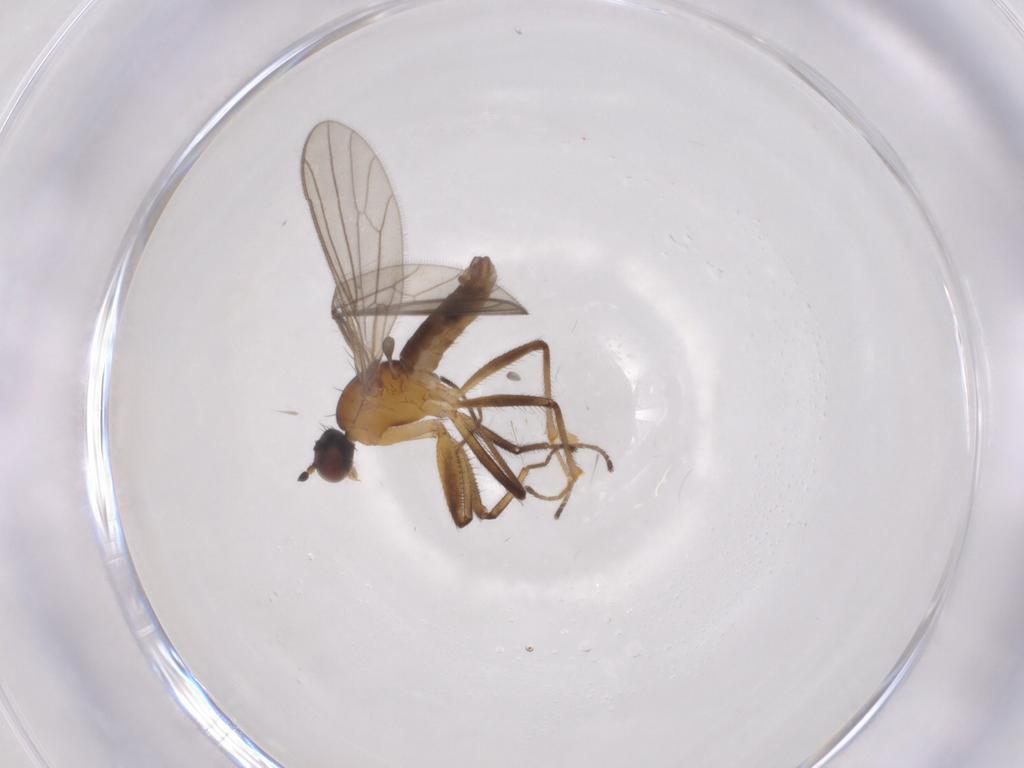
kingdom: Animalia
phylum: Arthropoda
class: Insecta
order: Diptera
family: Empididae
